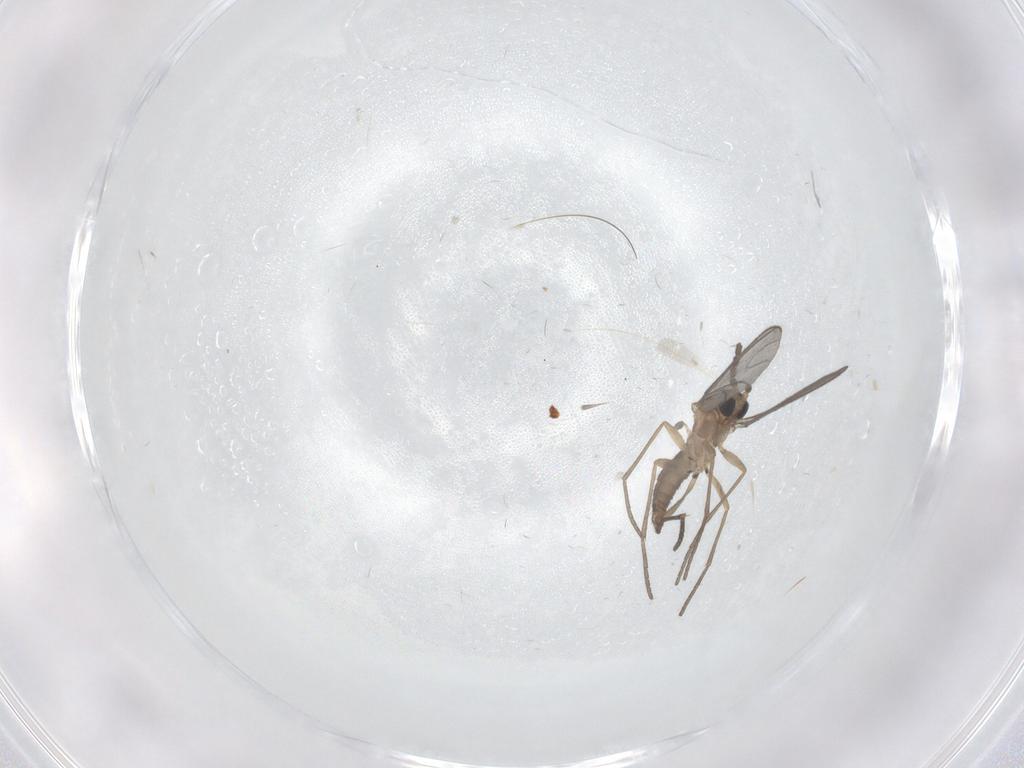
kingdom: Animalia
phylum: Arthropoda
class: Insecta
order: Diptera
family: Sciaridae
